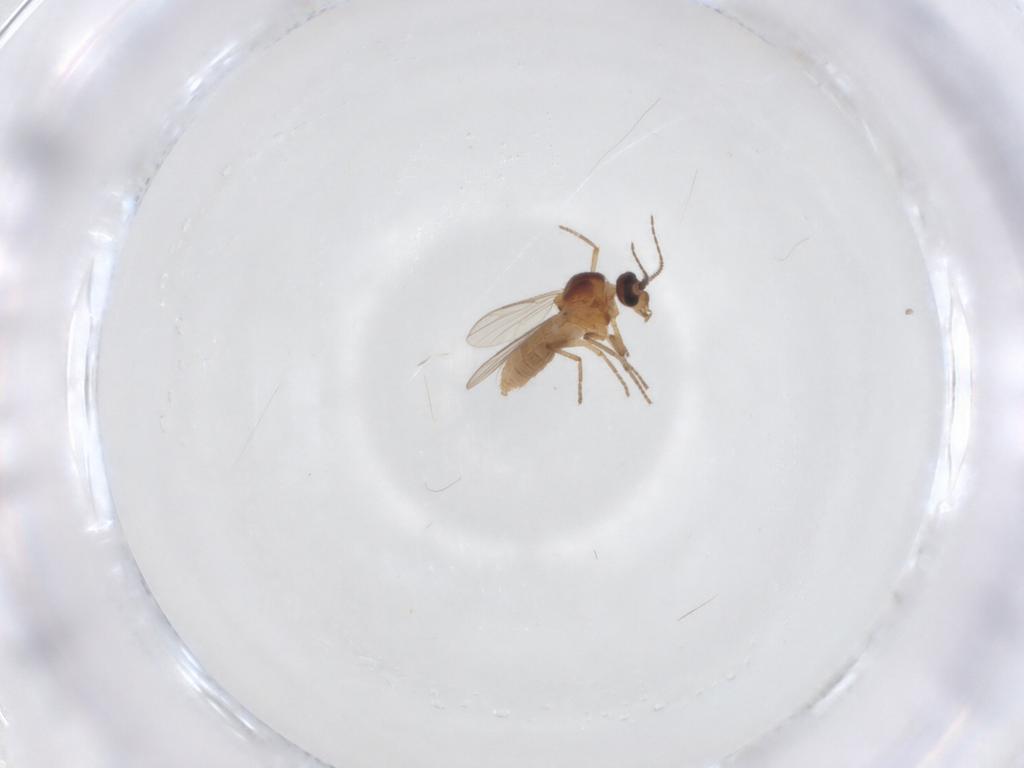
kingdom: Animalia
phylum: Arthropoda
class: Insecta
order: Diptera
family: Ceratopogonidae
